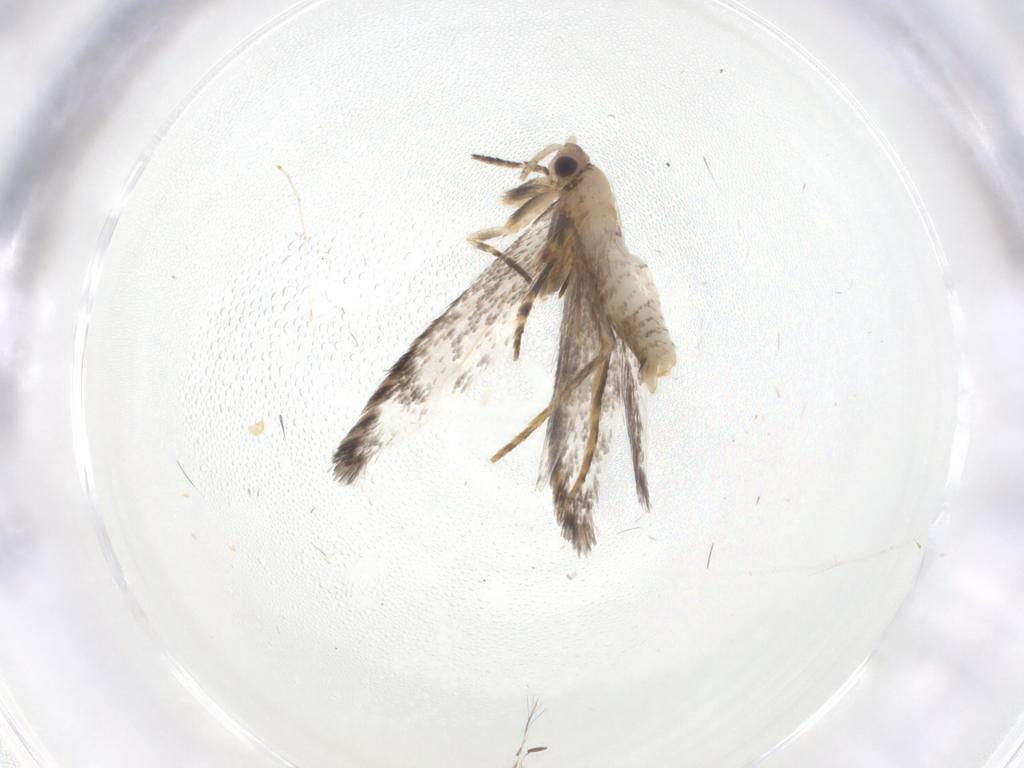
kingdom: Animalia
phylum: Arthropoda
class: Insecta
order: Lepidoptera
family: Tineidae
